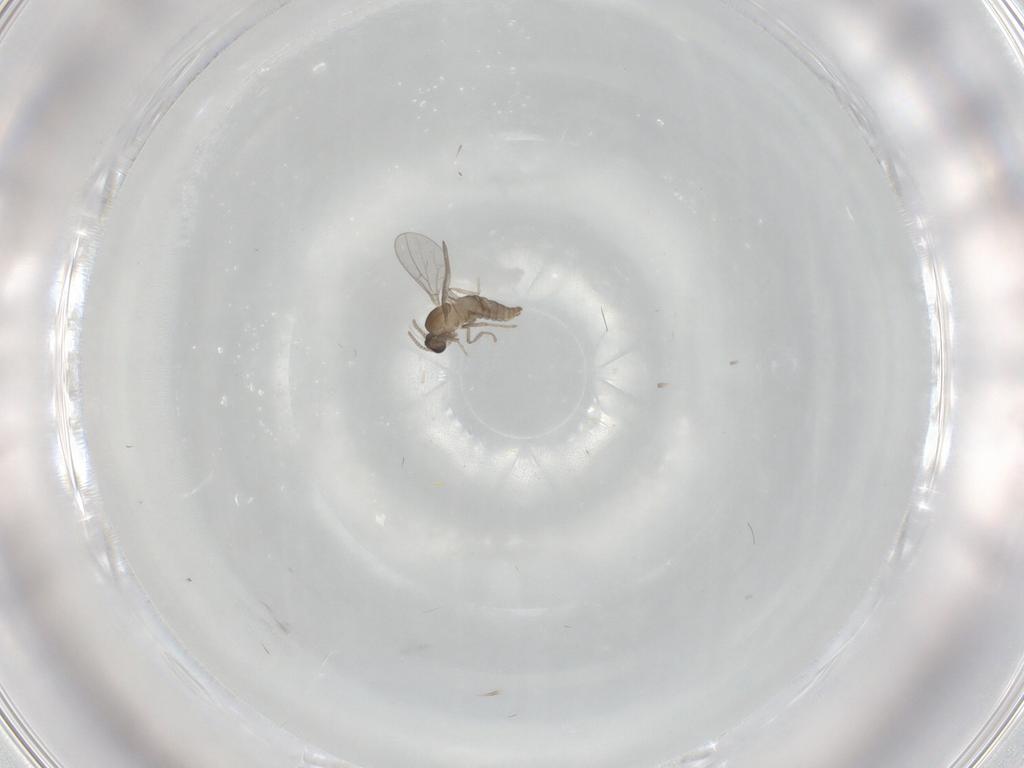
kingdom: Animalia
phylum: Arthropoda
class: Insecta
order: Diptera
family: Cecidomyiidae
